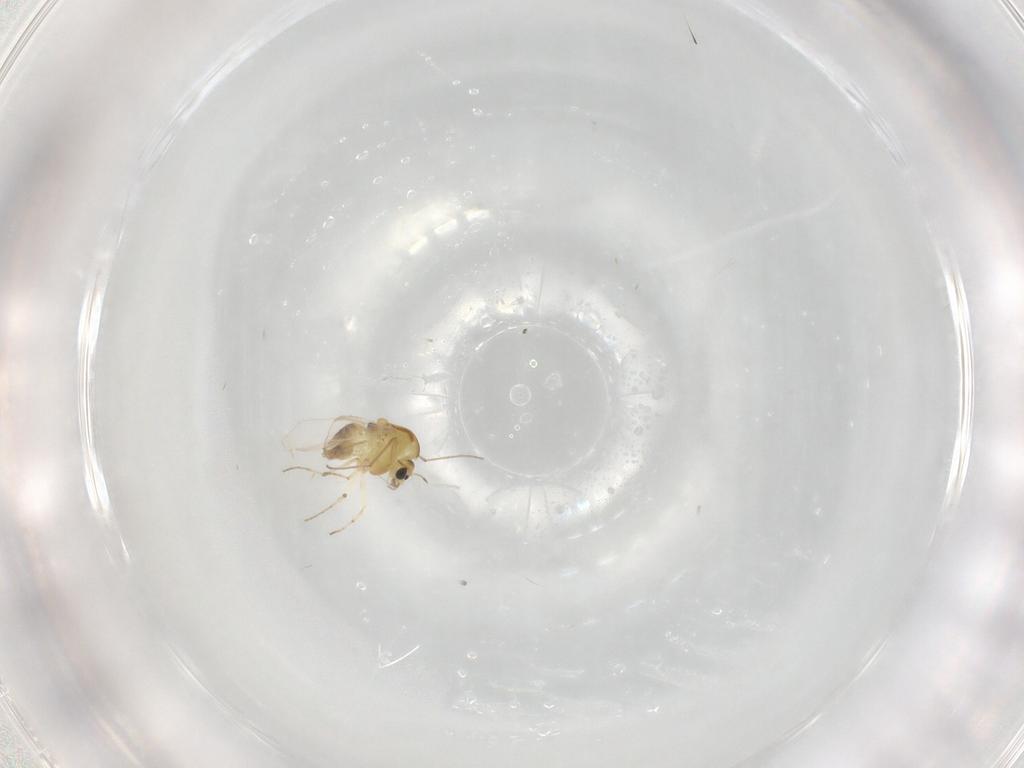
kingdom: Animalia
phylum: Arthropoda
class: Insecta
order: Diptera
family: Chironomidae
